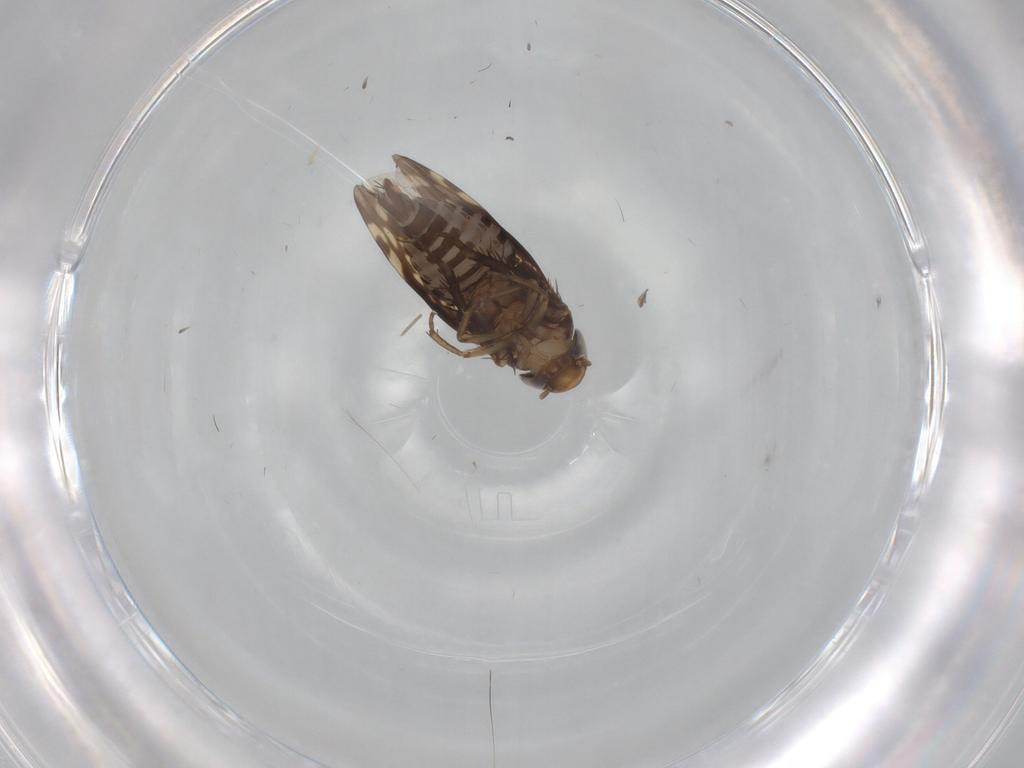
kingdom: Animalia
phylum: Arthropoda
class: Insecta
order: Hemiptera
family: Cicadellidae
